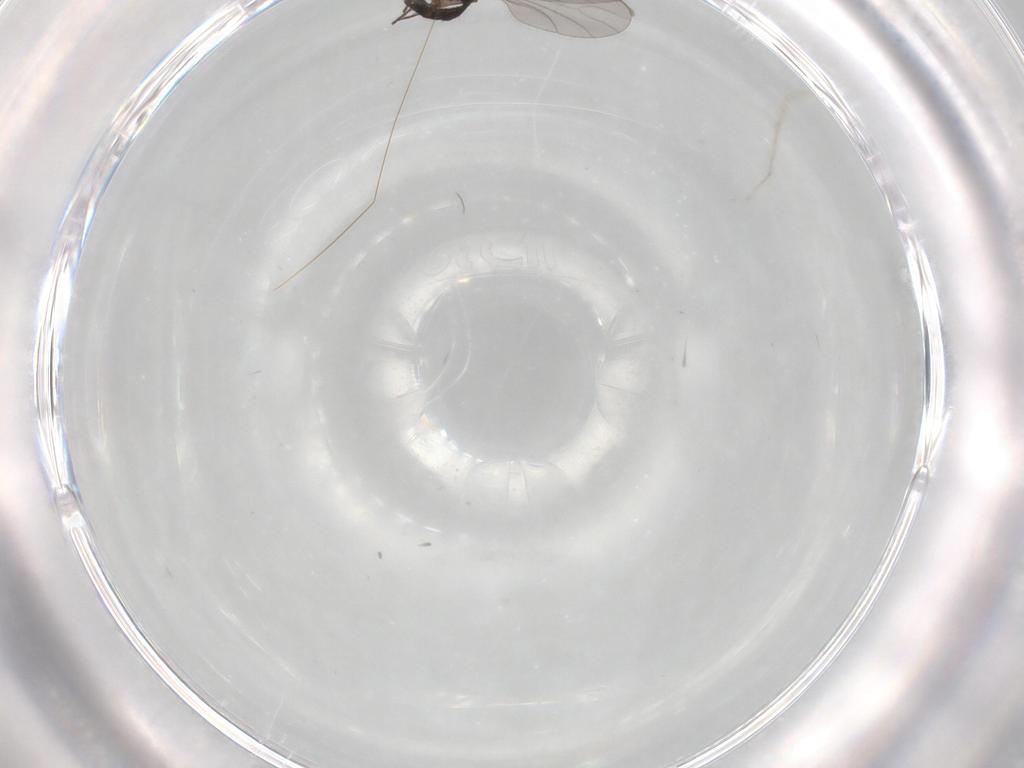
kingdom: Animalia
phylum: Arthropoda
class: Insecta
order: Diptera
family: Sciaridae
